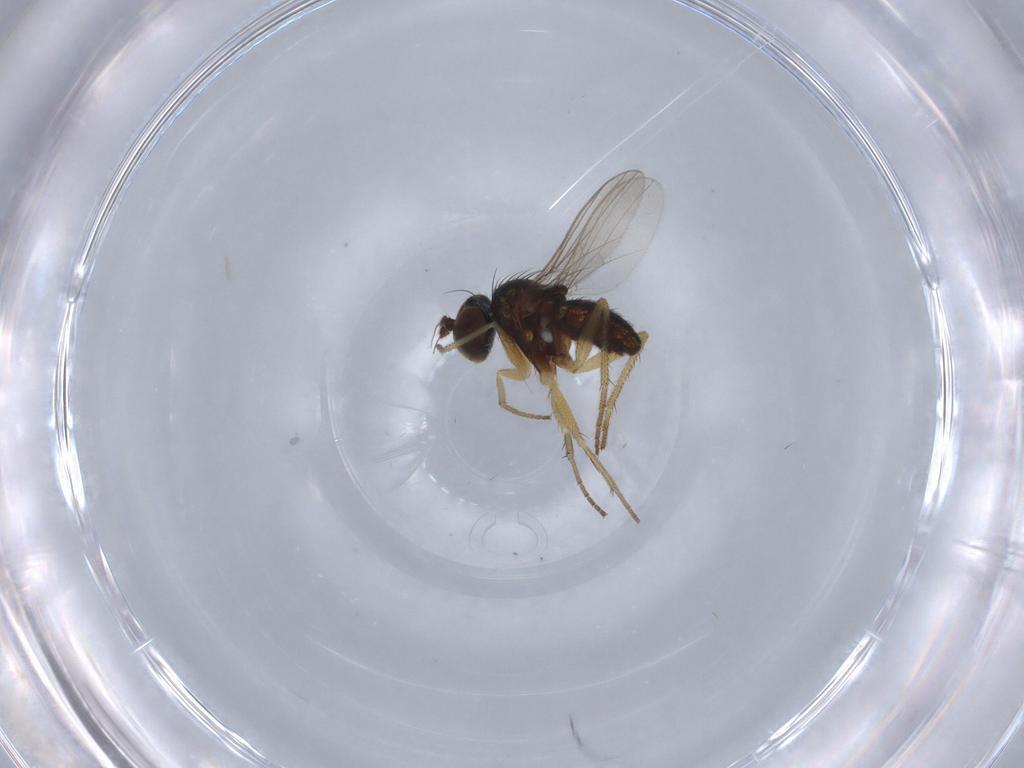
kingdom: Animalia
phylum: Arthropoda
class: Insecta
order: Diptera
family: Dolichopodidae
